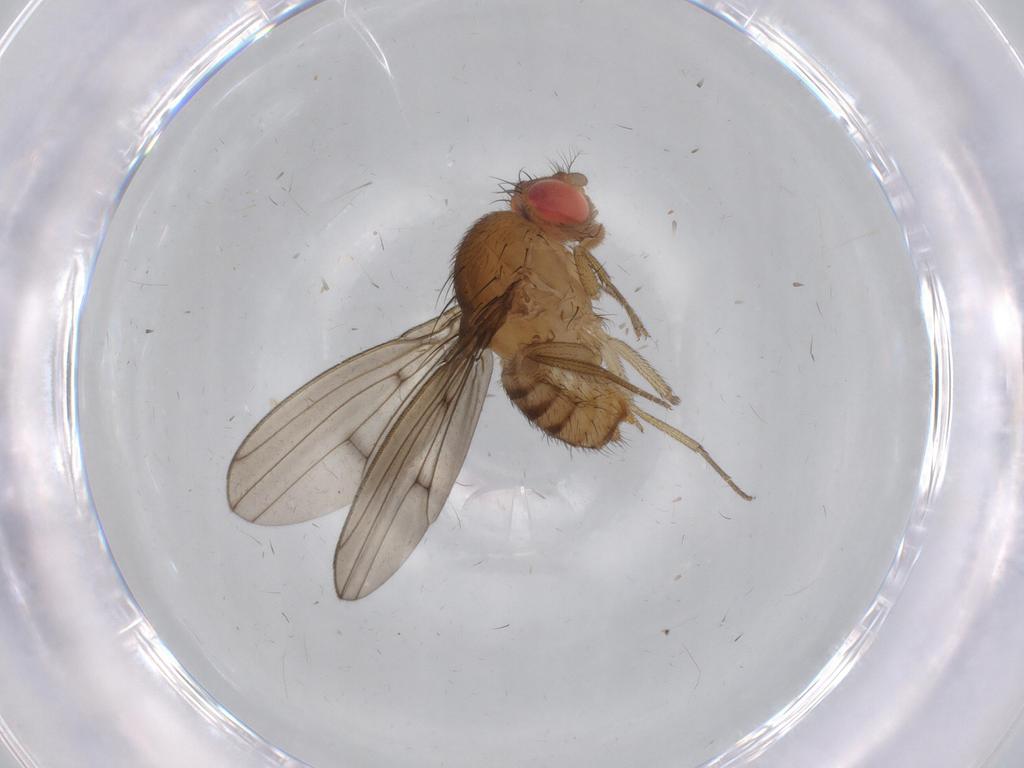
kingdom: Animalia
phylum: Arthropoda
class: Insecta
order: Diptera
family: Drosophilidae
